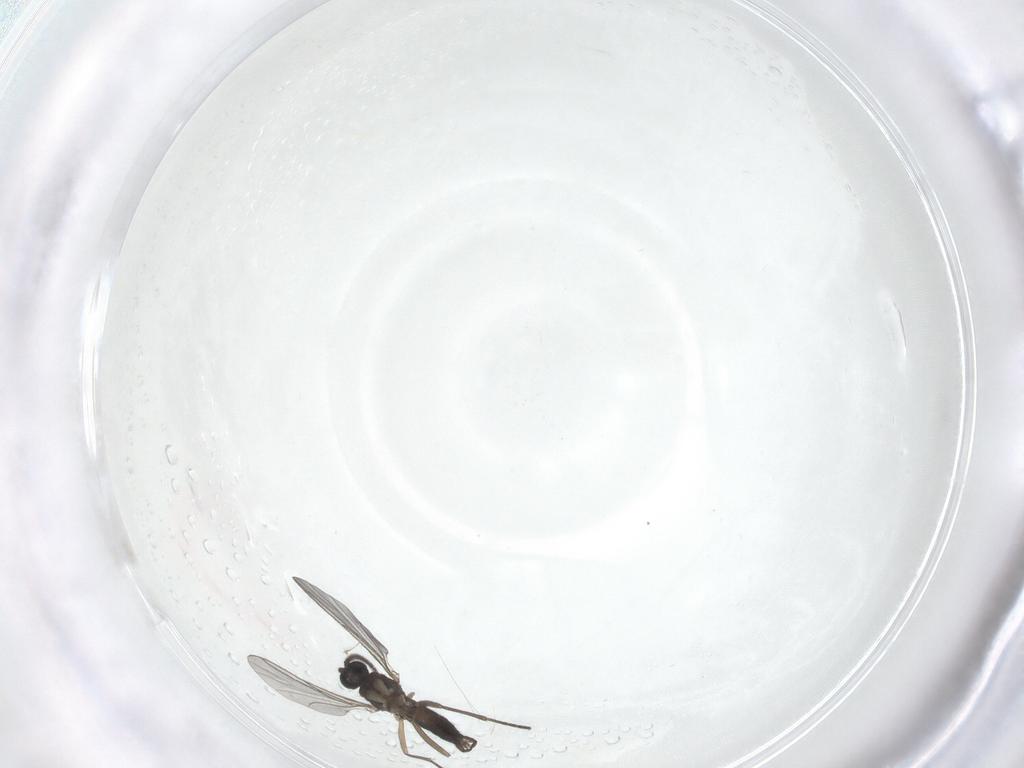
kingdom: Animalia
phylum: Arthropoda
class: Insecta
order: Diptera
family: Sciaridae
